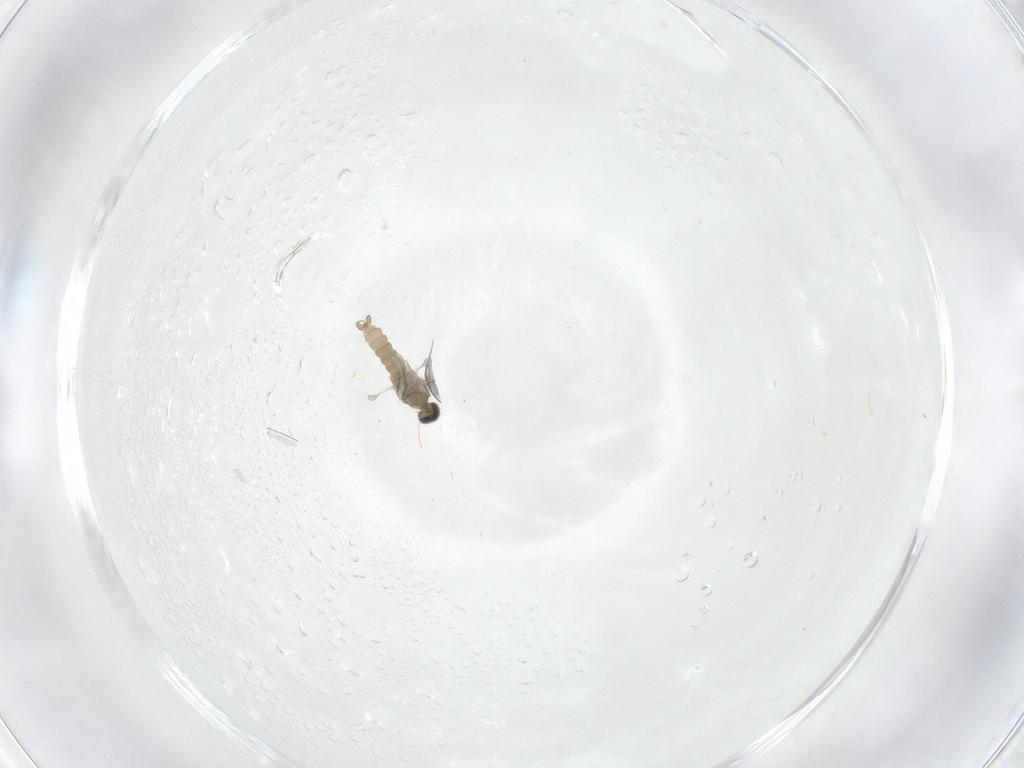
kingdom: Animalia
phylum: Arthropoda
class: Insecta
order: Diptera
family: Cecidomyiidae
